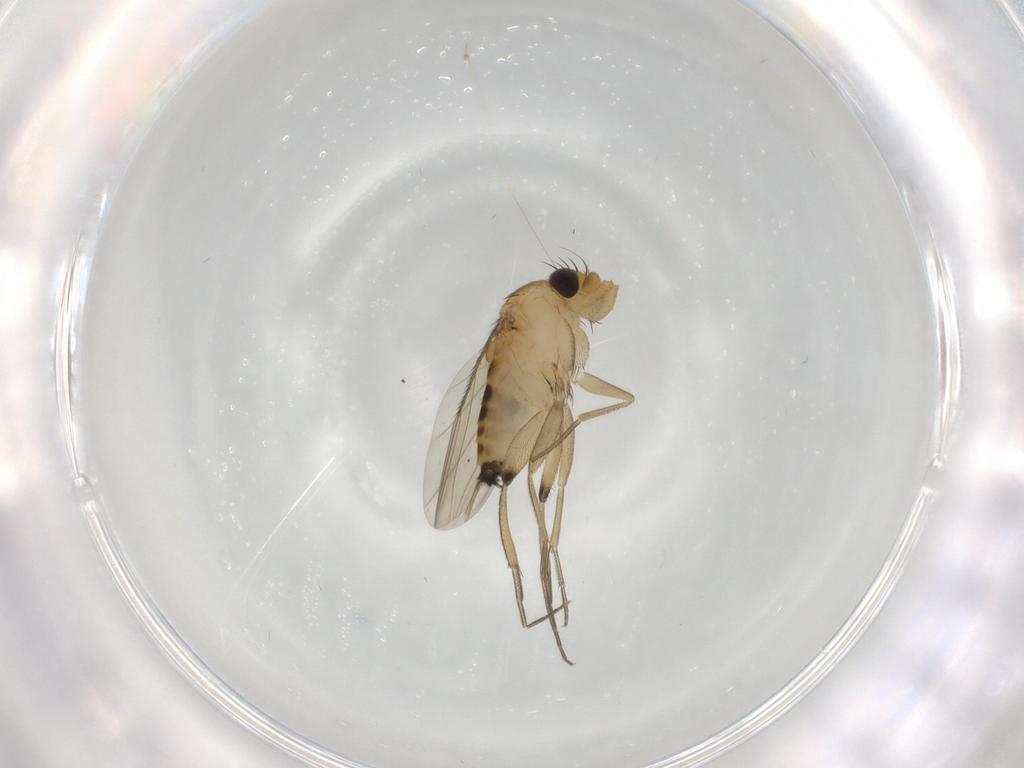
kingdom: Animalia
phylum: Arthropoda
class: Insecta
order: Diptera
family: Phoridae
